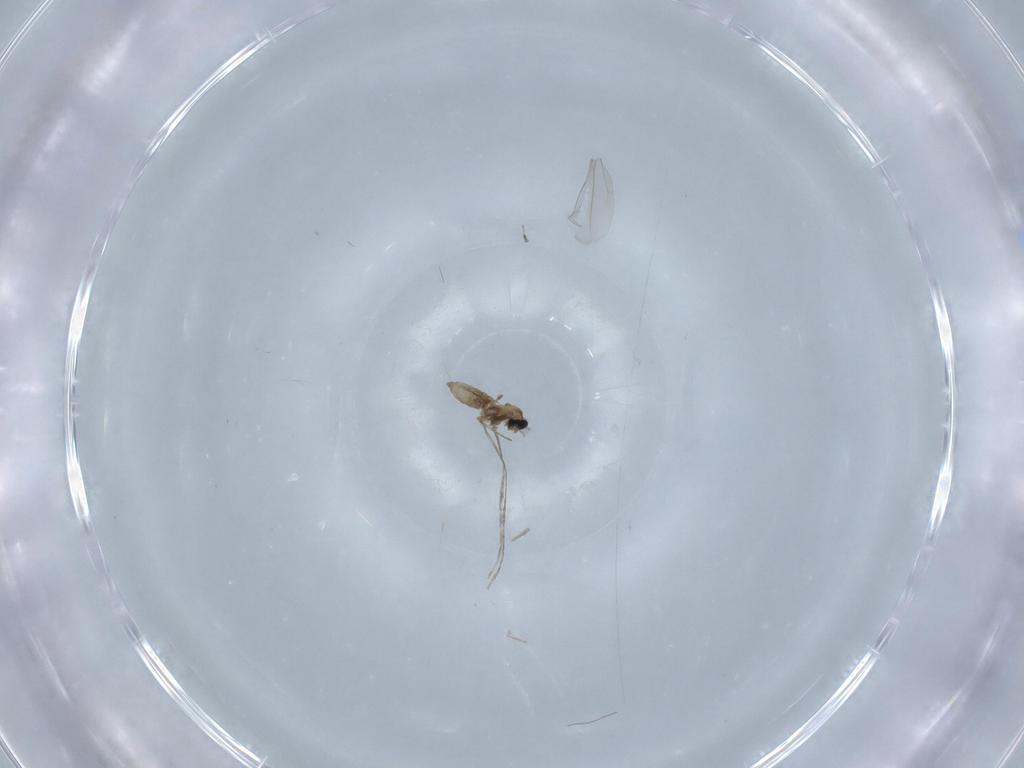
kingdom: Animalia
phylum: Arthropoda
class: Insecta
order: Diptera
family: Cecidomyiidae
